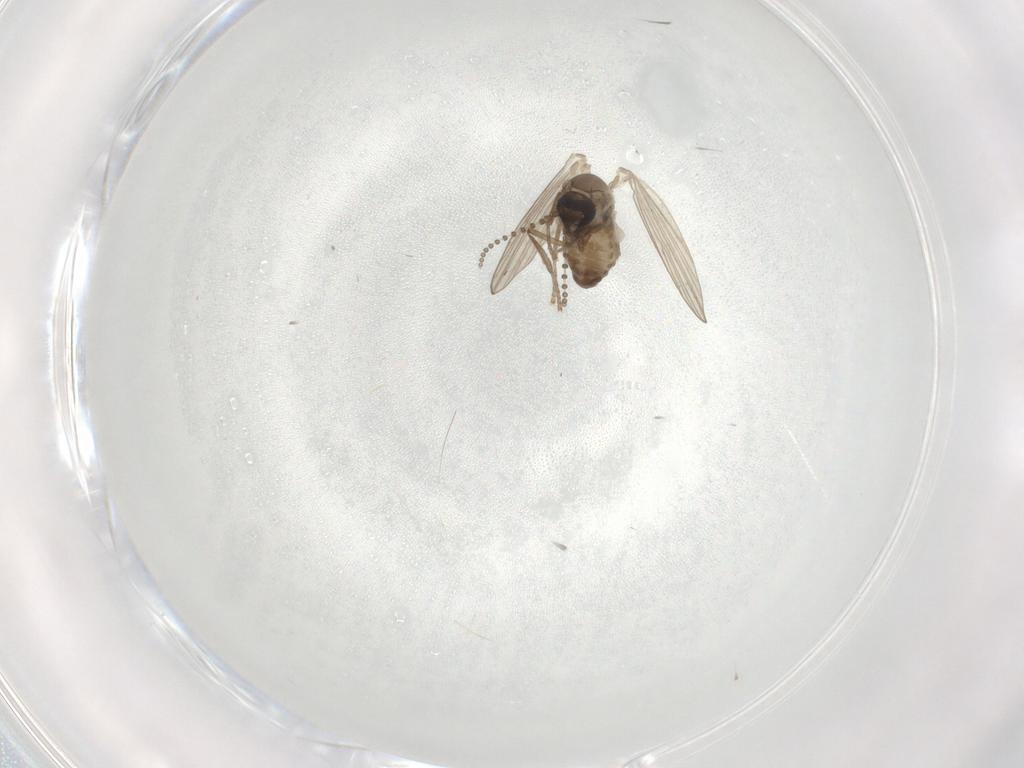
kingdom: Animalia
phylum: Arthropoda
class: Insecta
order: Diptera
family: Psychodidae
